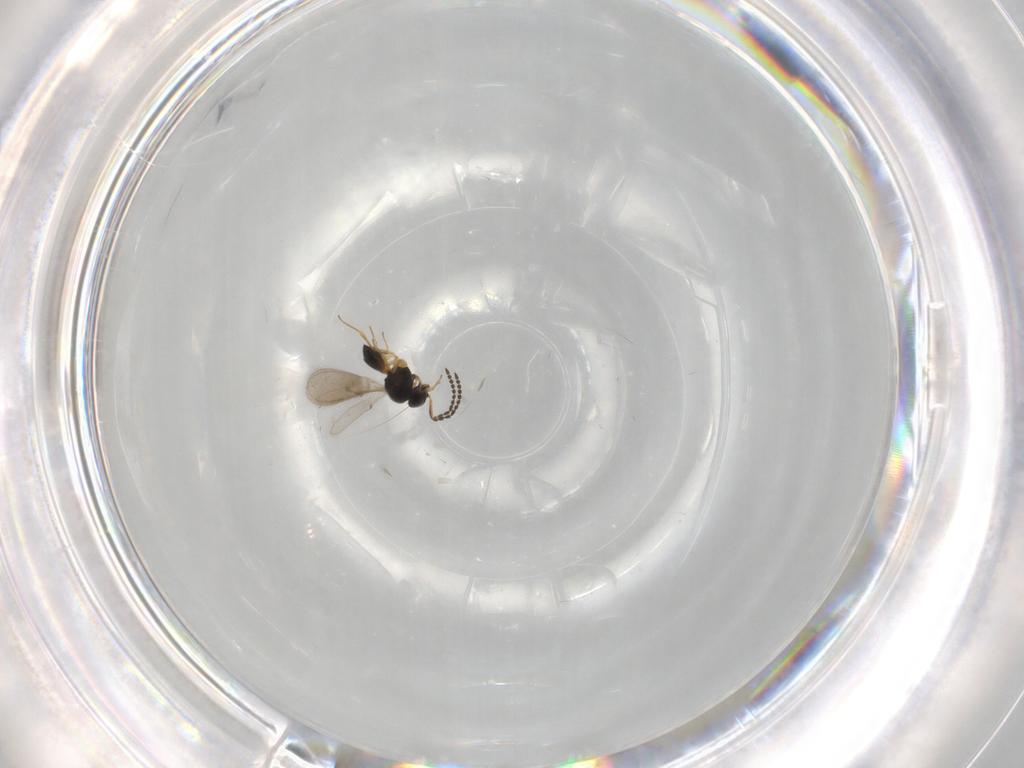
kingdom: Animalia
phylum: Arthropoda
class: Insecta
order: Hymenoptera
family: Scelionidae
